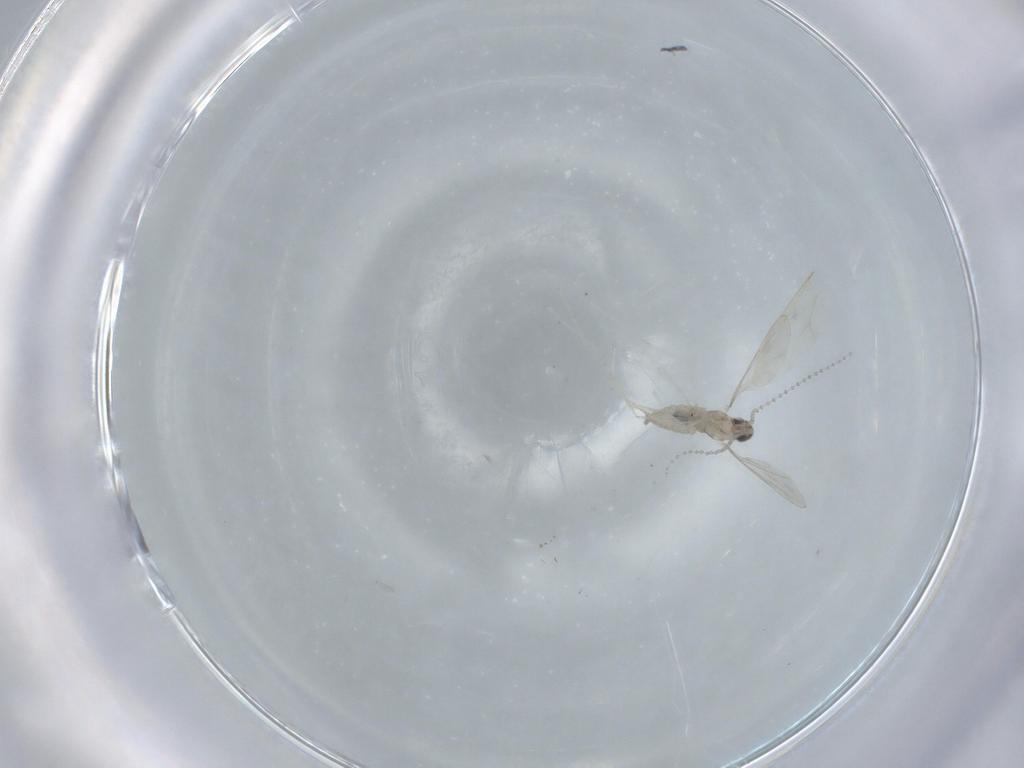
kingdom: Animalia
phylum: Arthropoda
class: Insecta
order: Diptera
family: Cecidomyiidae
